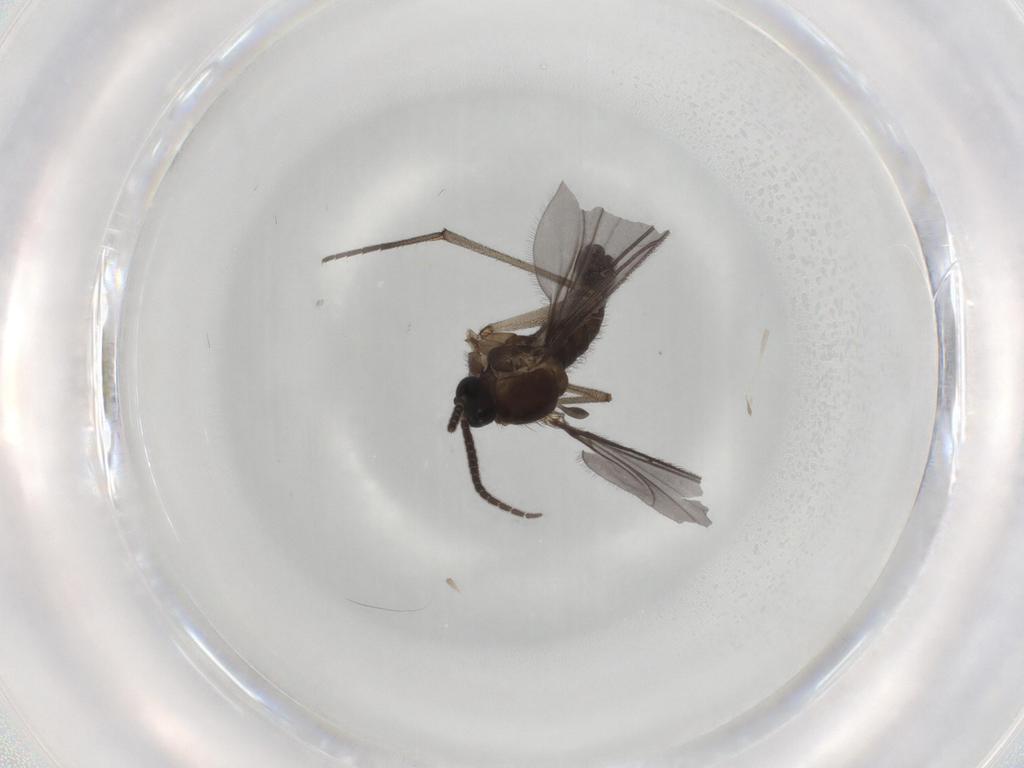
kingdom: Animalia
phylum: Arthropoda
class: Insecta
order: Diptera
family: Sciaridae
